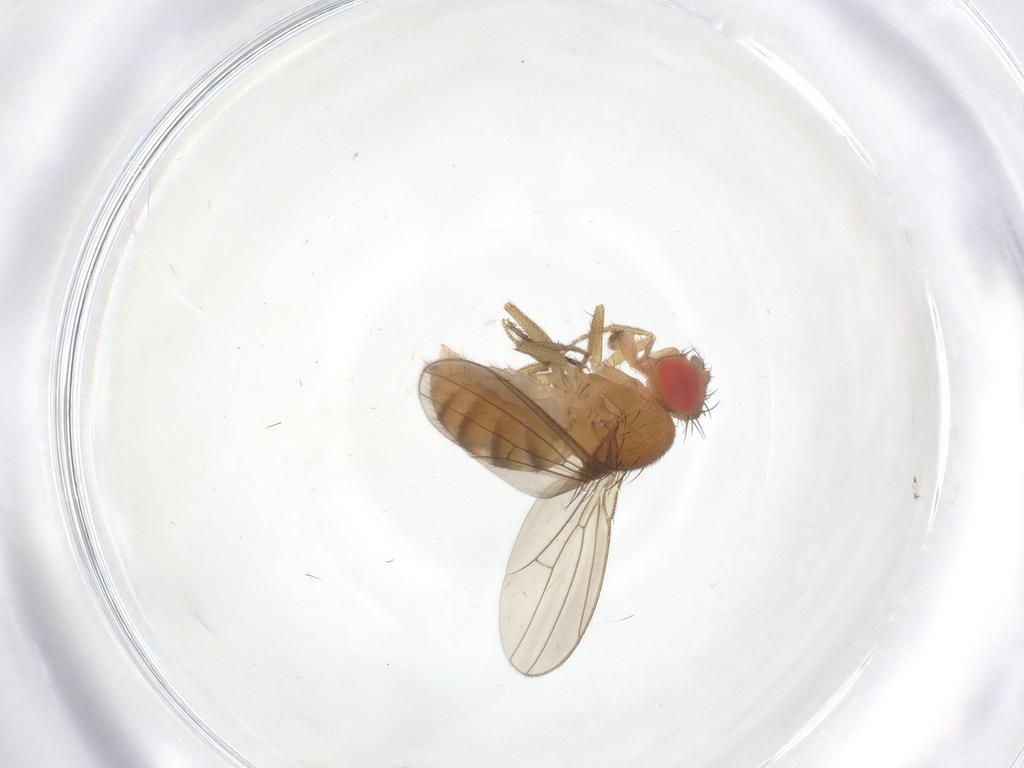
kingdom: Animalia
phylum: Arthropoda
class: Insecta
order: Diptera
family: Drosophilidae
